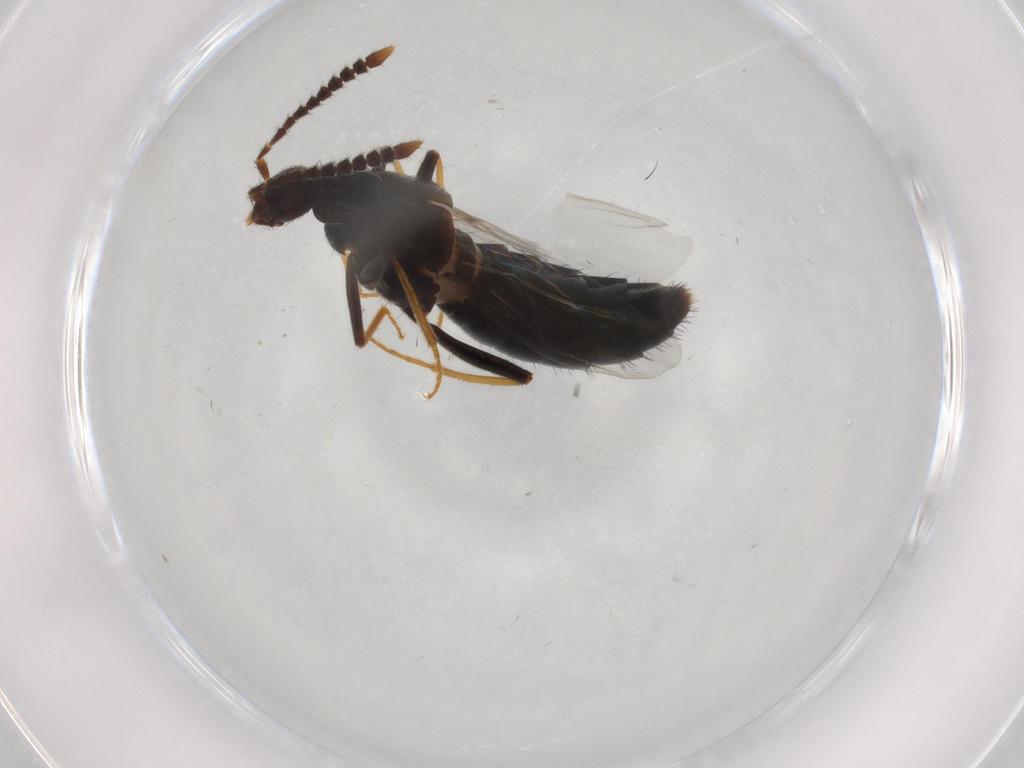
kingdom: Animalia
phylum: Arthropoda
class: Insecta
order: Coleoptera
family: Staphylinidae
